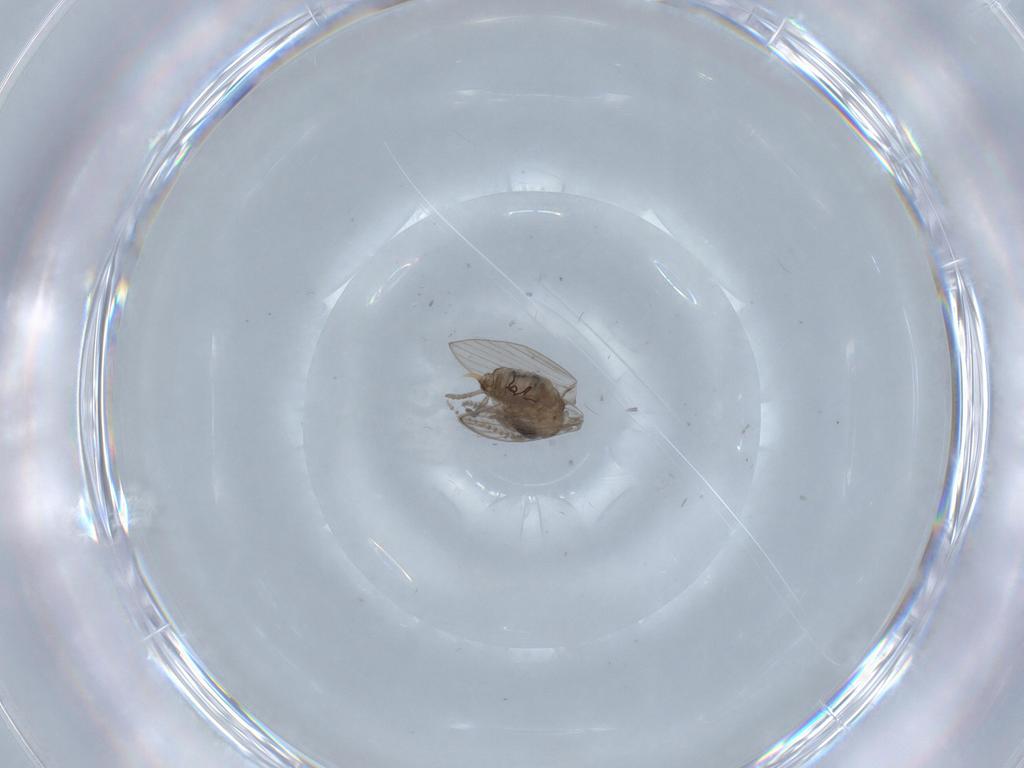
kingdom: Animalia
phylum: Arthropoda
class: Insecta
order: Diptera
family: Psychodidae
